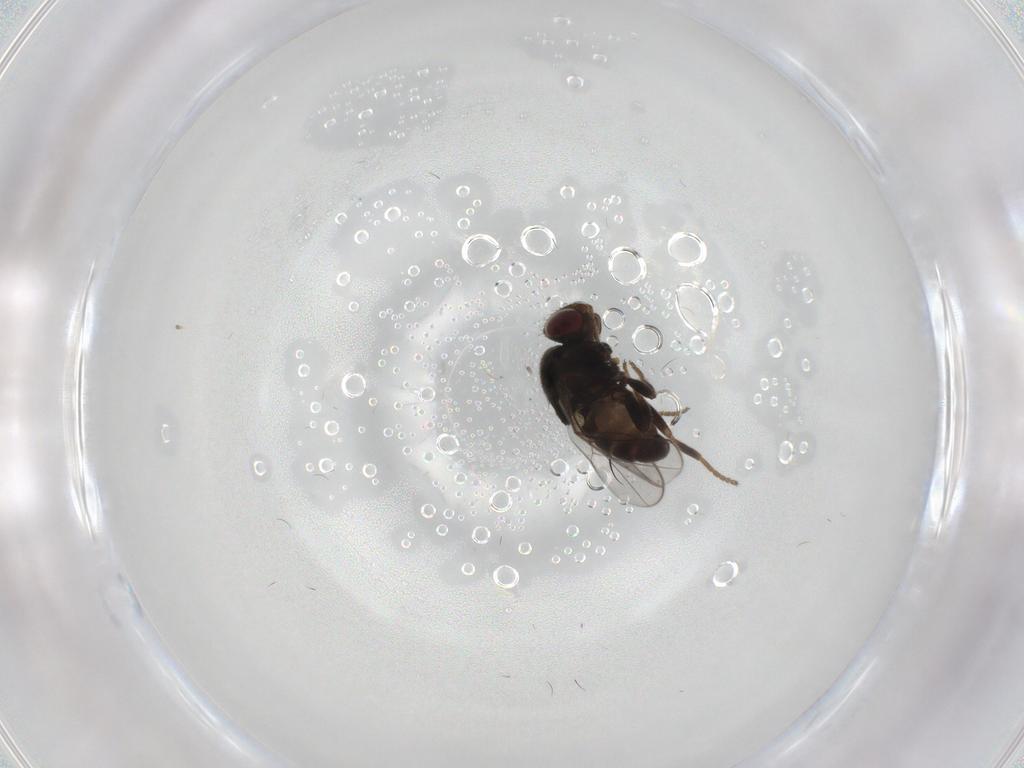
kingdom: Animalia
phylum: Arthropoda
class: Insecta
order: Diptera
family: Chloropidae
